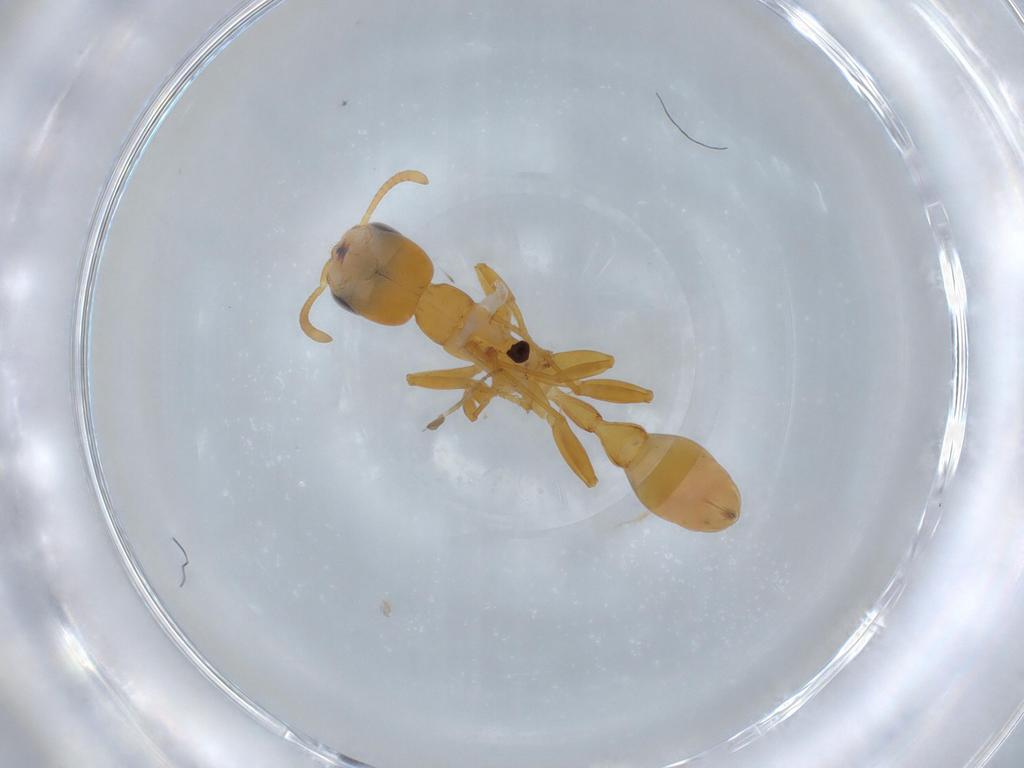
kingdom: Animalia
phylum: Arthropoda
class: Insecta
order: Hymenoptera
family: Formicidae
